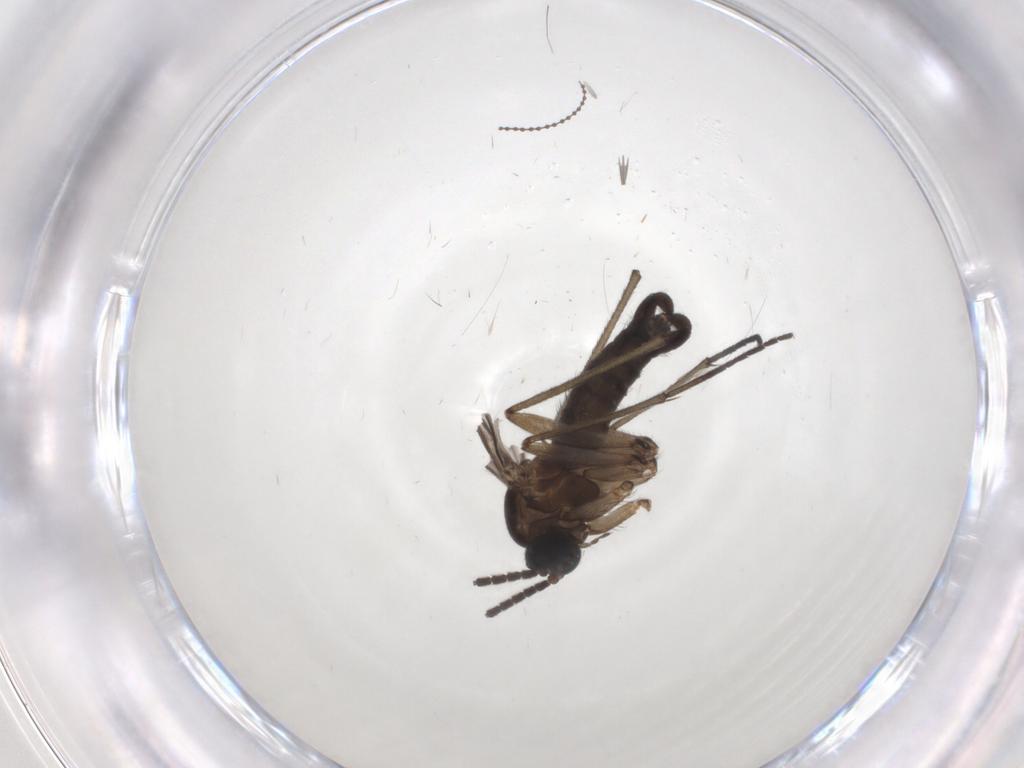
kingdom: Animalia
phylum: Arthropoda
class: Insecta
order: Diptera
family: Sciaridae
